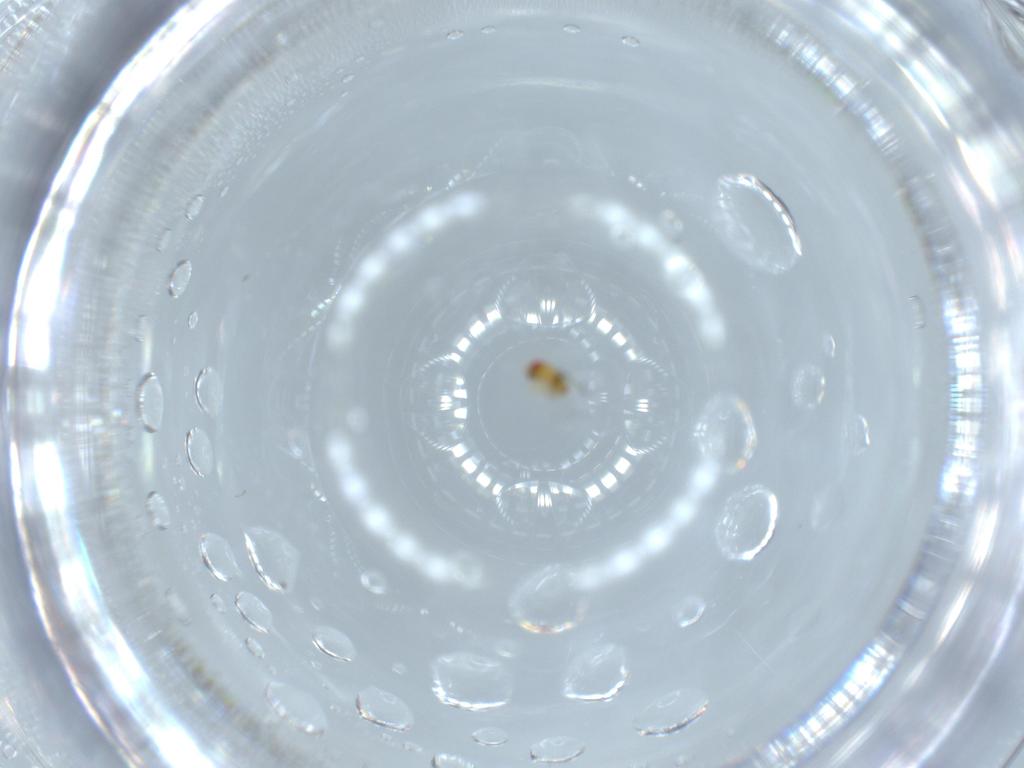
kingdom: Animalia
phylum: Arthropoda
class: Insecta
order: Hymenoptera
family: Trichogrammatidae
